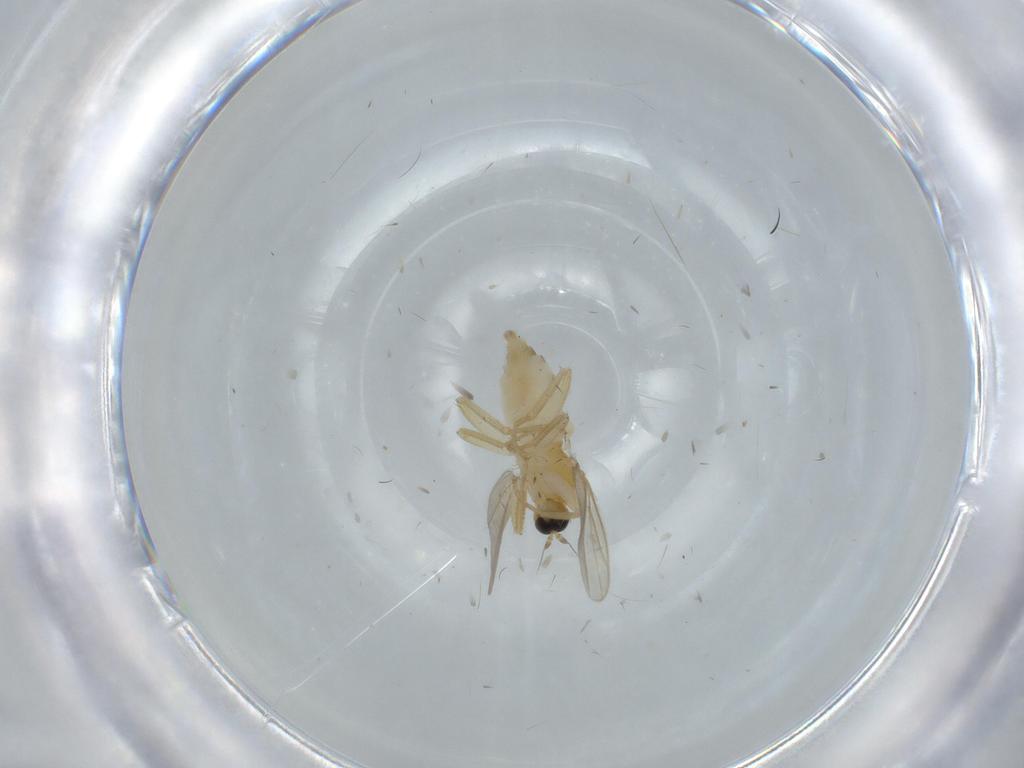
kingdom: Animalia
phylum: Arthropoda
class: Insecta
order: Diptera
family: Hybotidae
